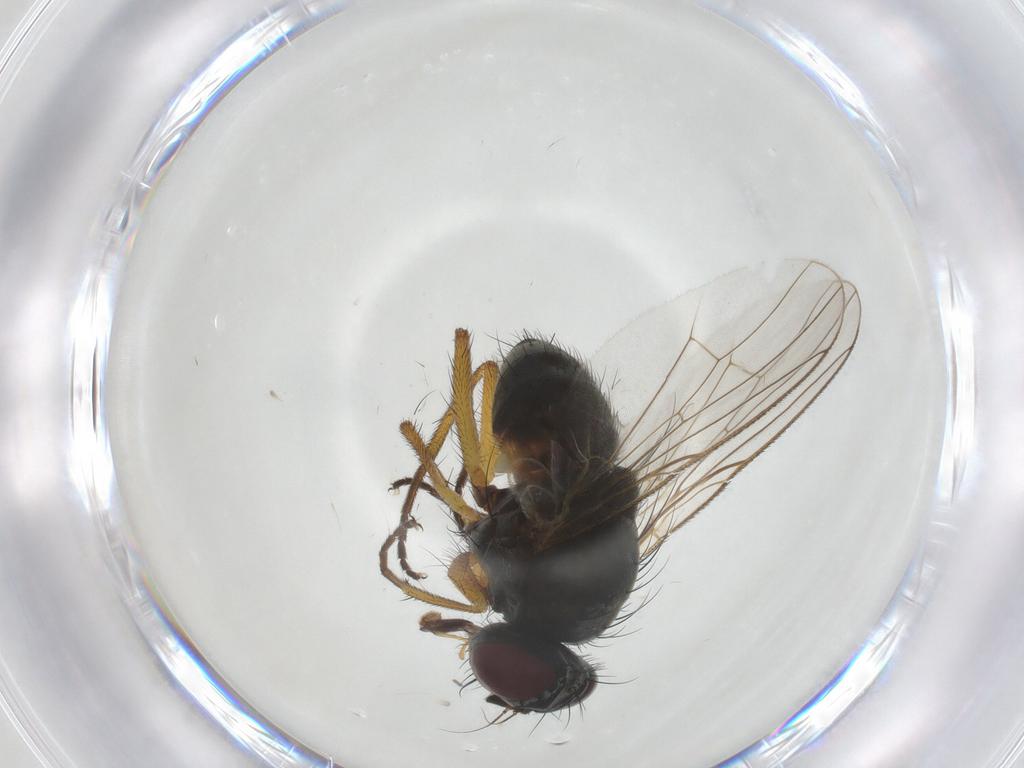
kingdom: Animalia
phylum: Arthropoda
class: Insecta
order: Diptera
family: Muscidae
